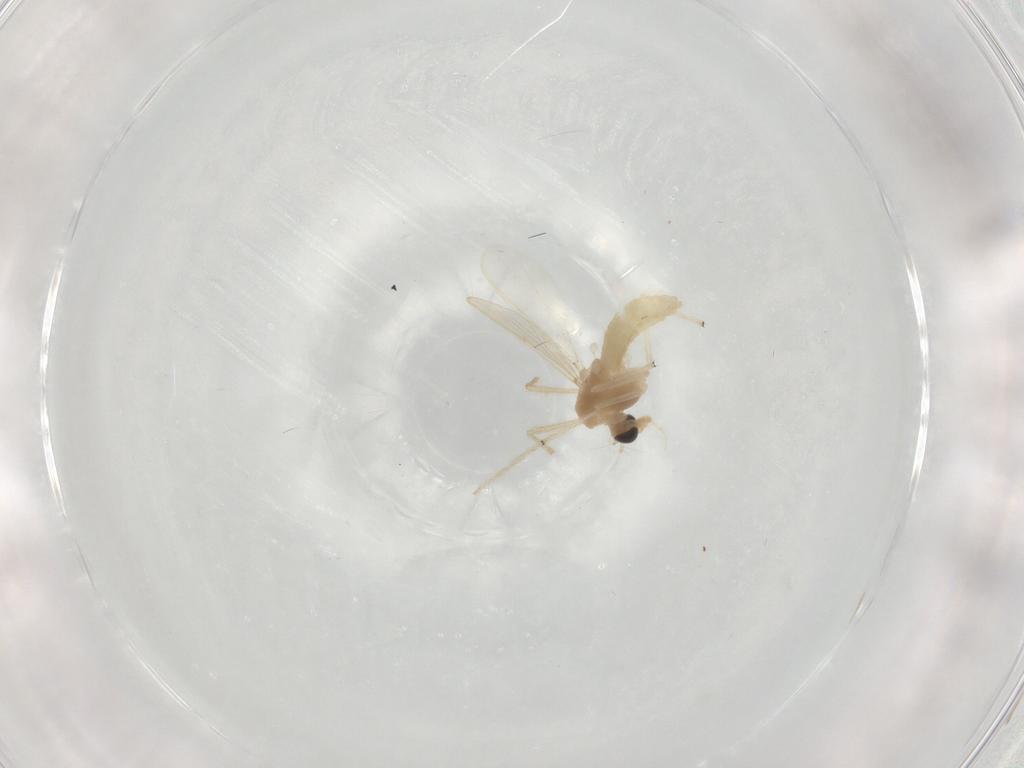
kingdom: Animalia
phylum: Arthropoda
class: Insecta
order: Diptera
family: Chironomidae
